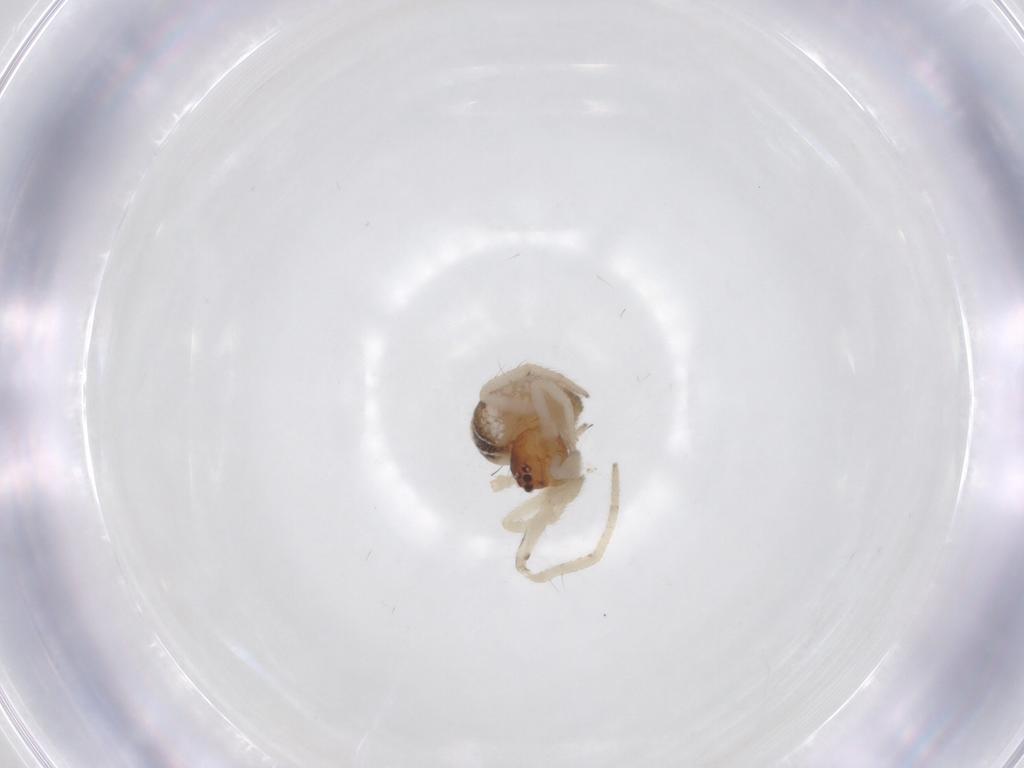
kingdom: Animalia
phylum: Arthropoda
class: Arachnida
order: Araneae
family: Theridiidae
